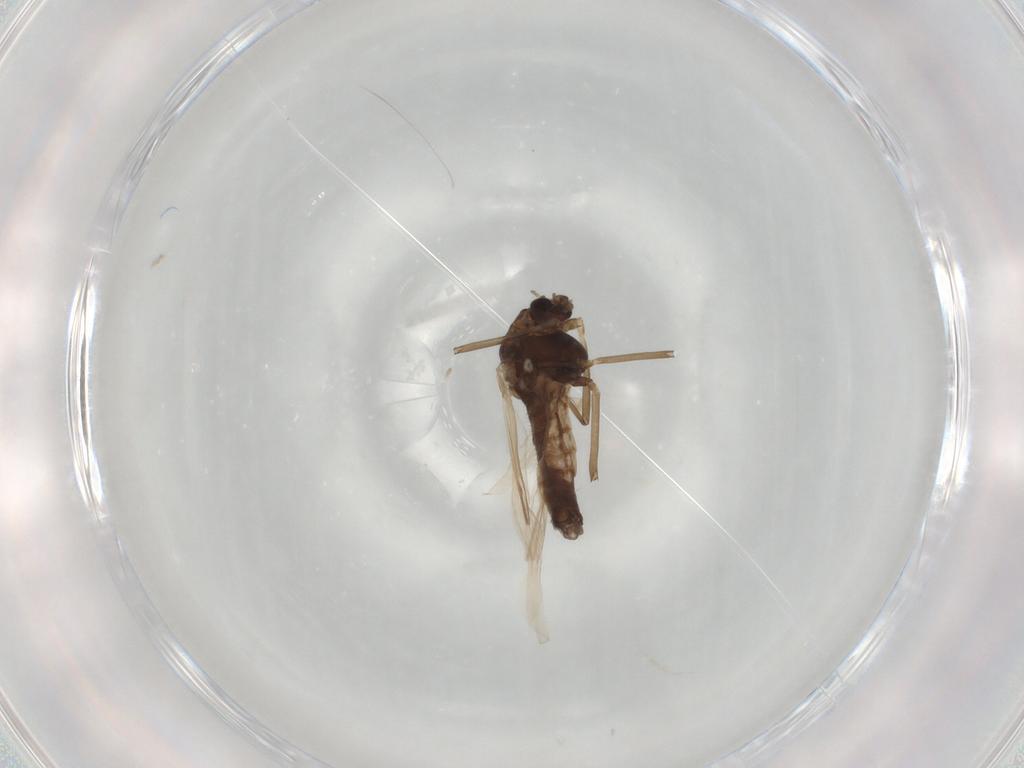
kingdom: Animalia
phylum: Arthropoda
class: Insecta
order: Diptera
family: Chironomidae
